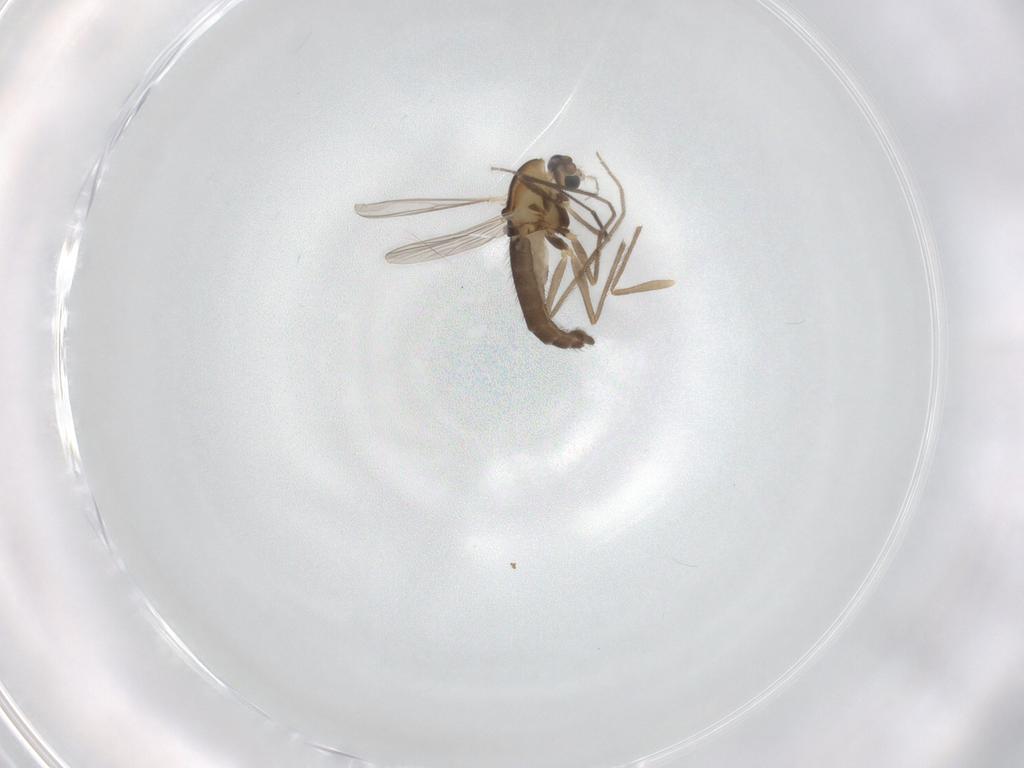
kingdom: Animalia
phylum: Arthropoda
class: Insecta
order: Diptera
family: Chironomidae
